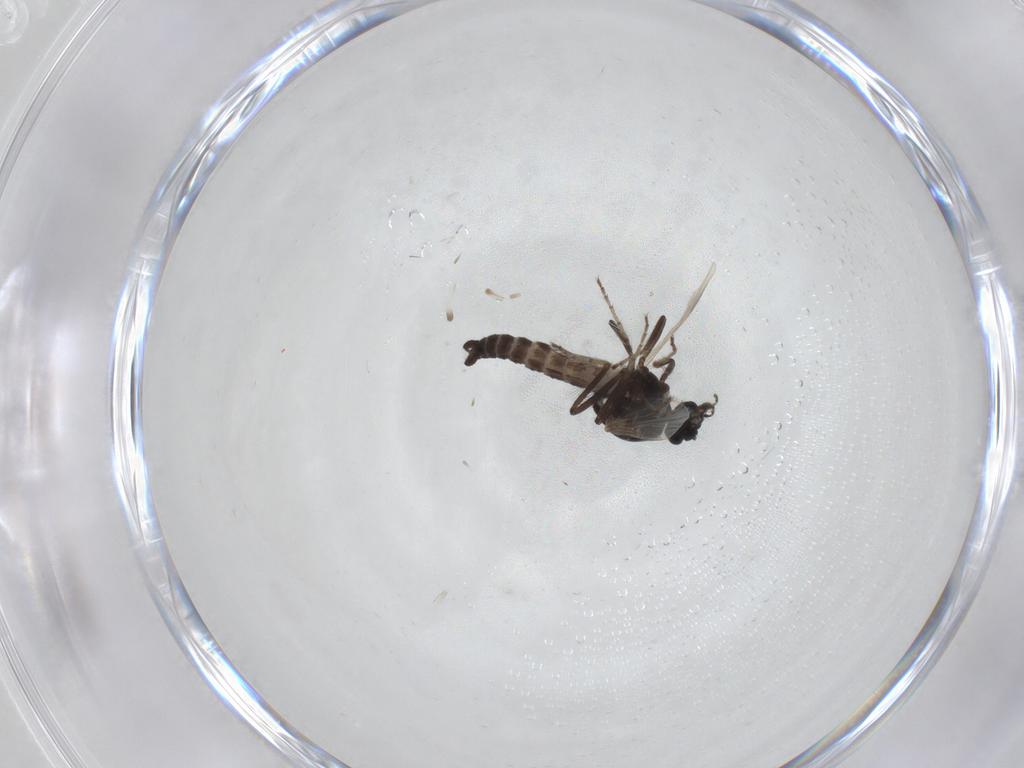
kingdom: Animalia
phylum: Arthropoda
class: Insecta
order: Diptera
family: Ceratopogonidae
